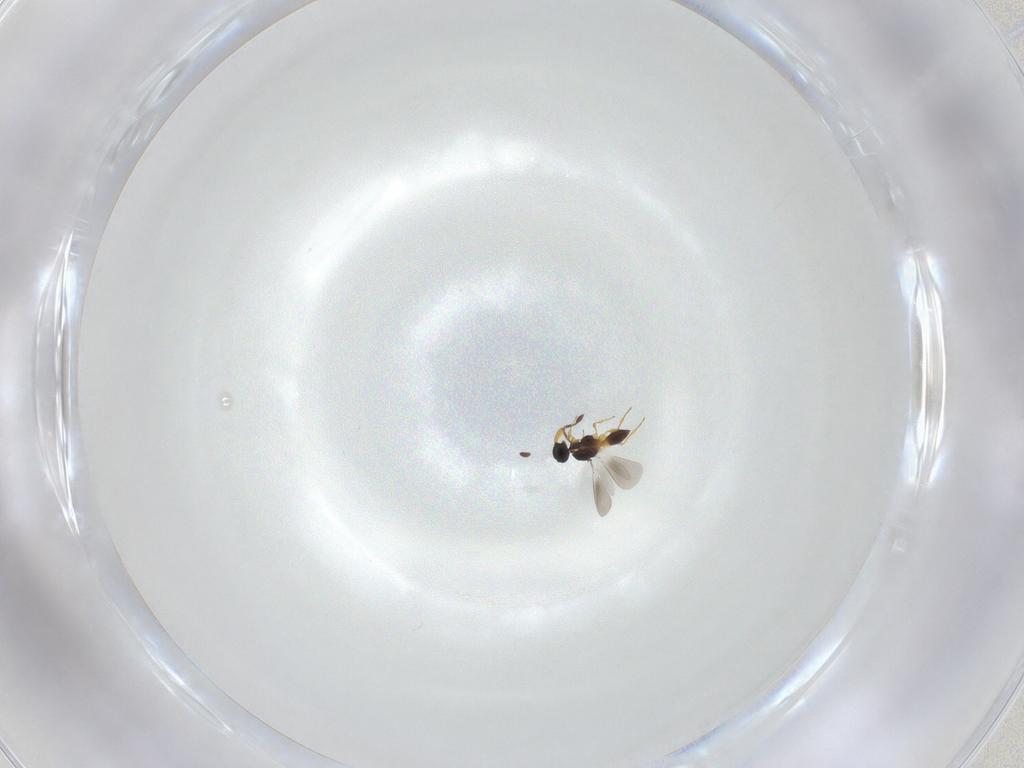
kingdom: Animalia
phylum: Arthropoda
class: Insecta
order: Hymenoptera
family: Platygastridae
